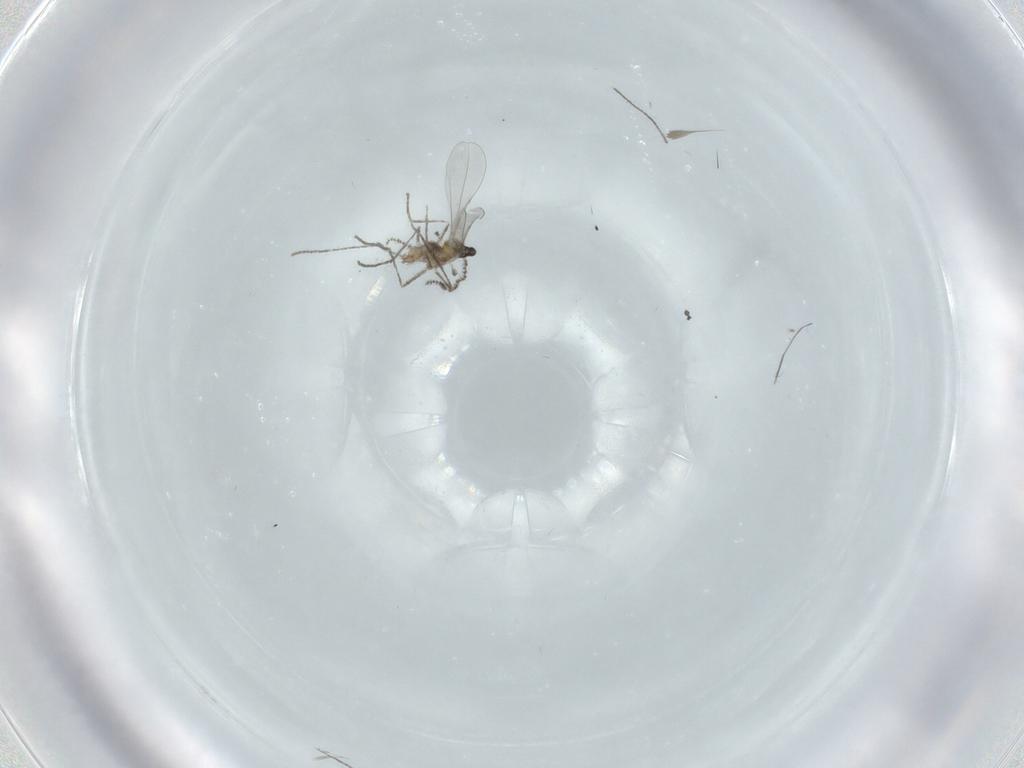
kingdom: Animalia
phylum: Arthropoda
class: Insecta
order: Diptera
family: Cecidomyiidae
